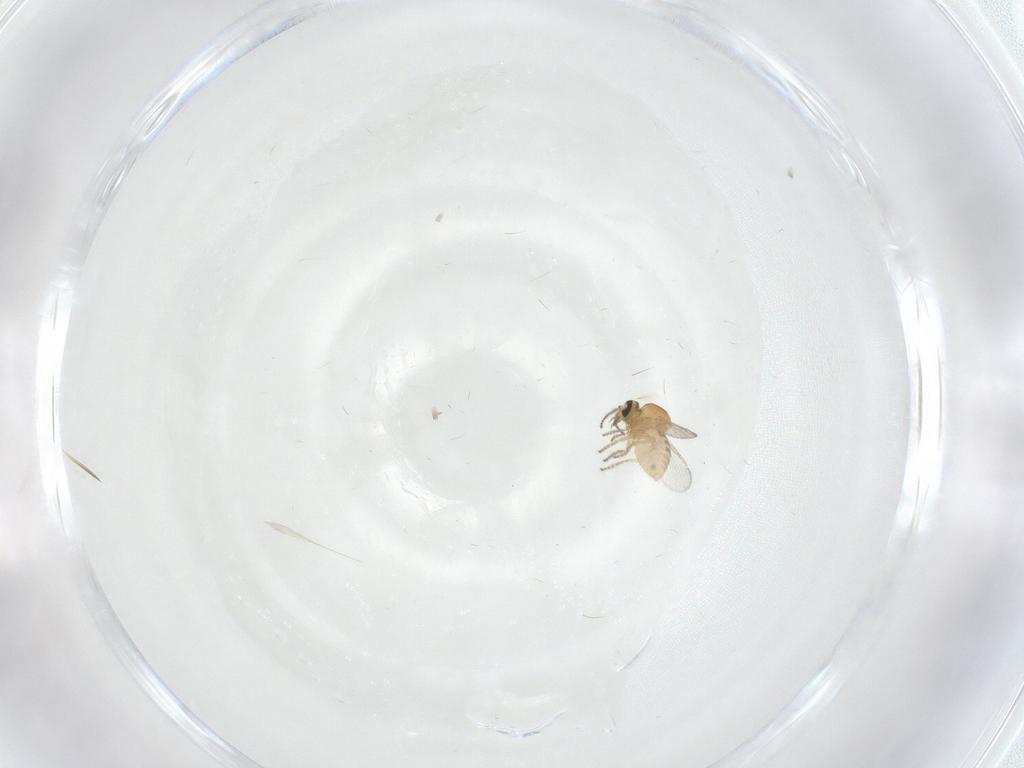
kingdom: Animalia
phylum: Arthropoda
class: Insecta
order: Diptera
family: Ceratopogonidae
